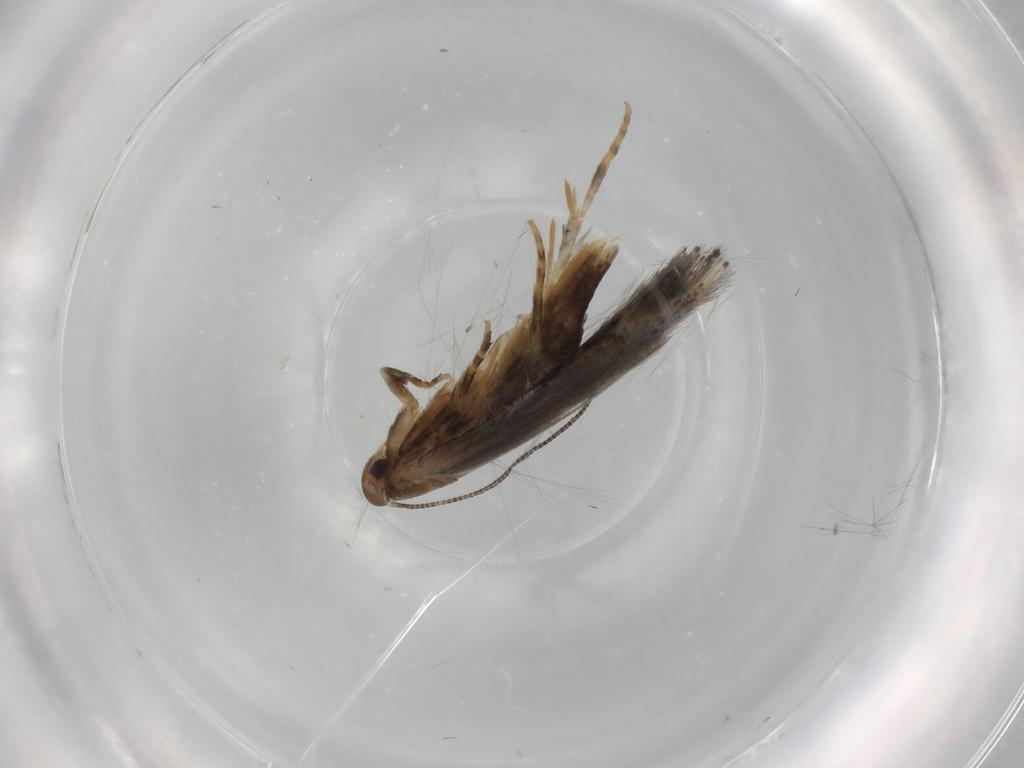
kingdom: Animalia
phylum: Arthropoda
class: Insecta
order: Lepidoptera
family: Elachistidae
